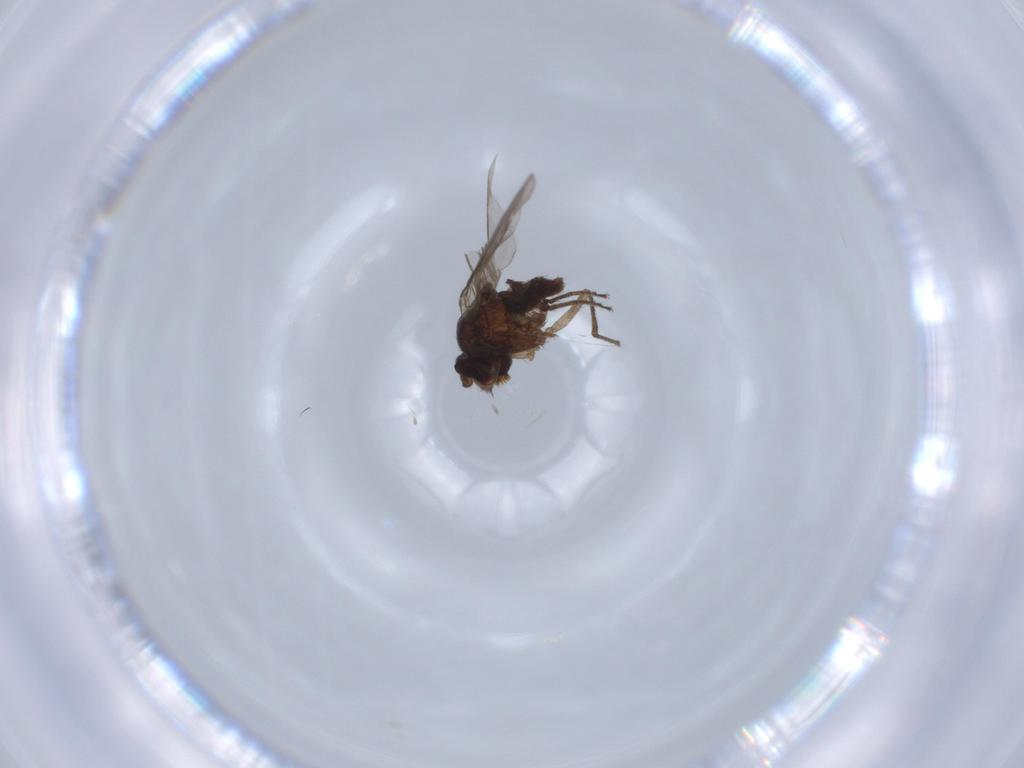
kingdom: Animalia
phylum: Arthropoda
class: Insecta
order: Diptera
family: Ephydridae
